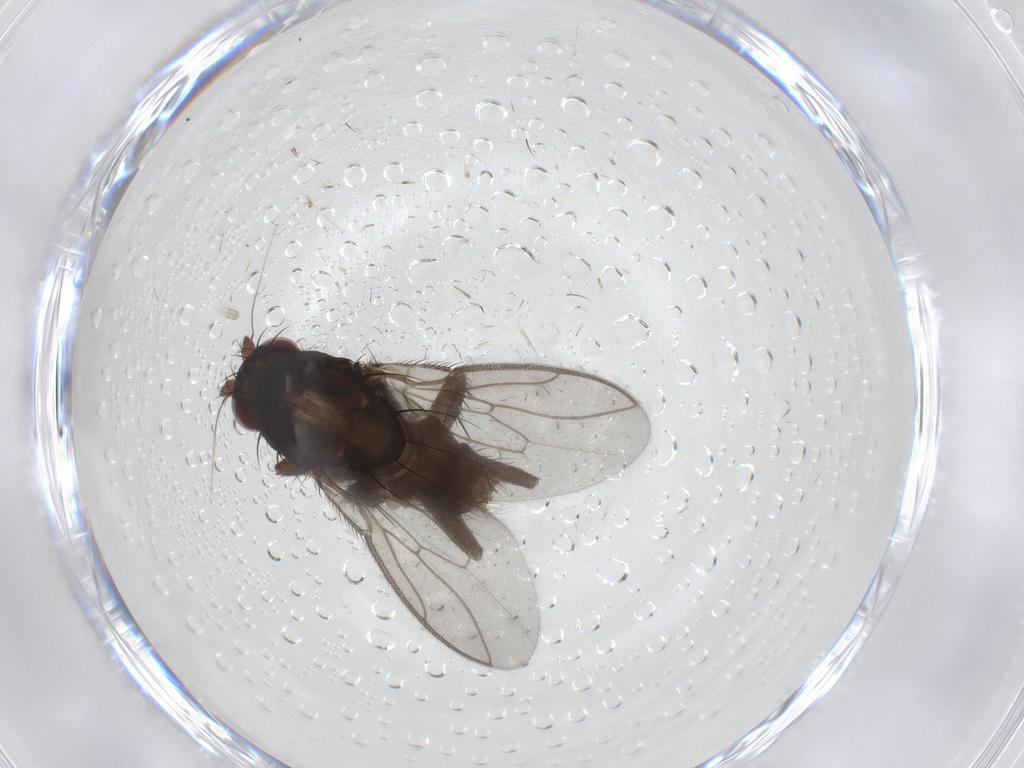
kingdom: Animalia
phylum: Arthropoda
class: Insecta
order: Diptera
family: Sphaeroceridae
